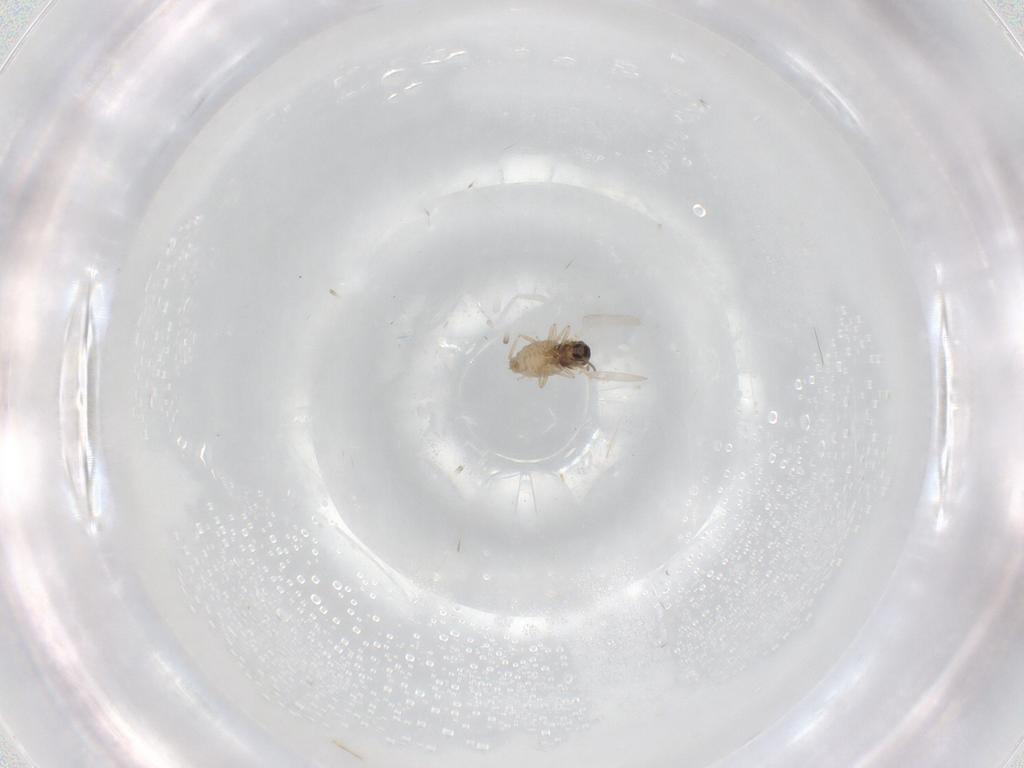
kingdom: Animalia
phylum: Arthropoda
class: Insecta
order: Diptera
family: Cecidomyiidae
